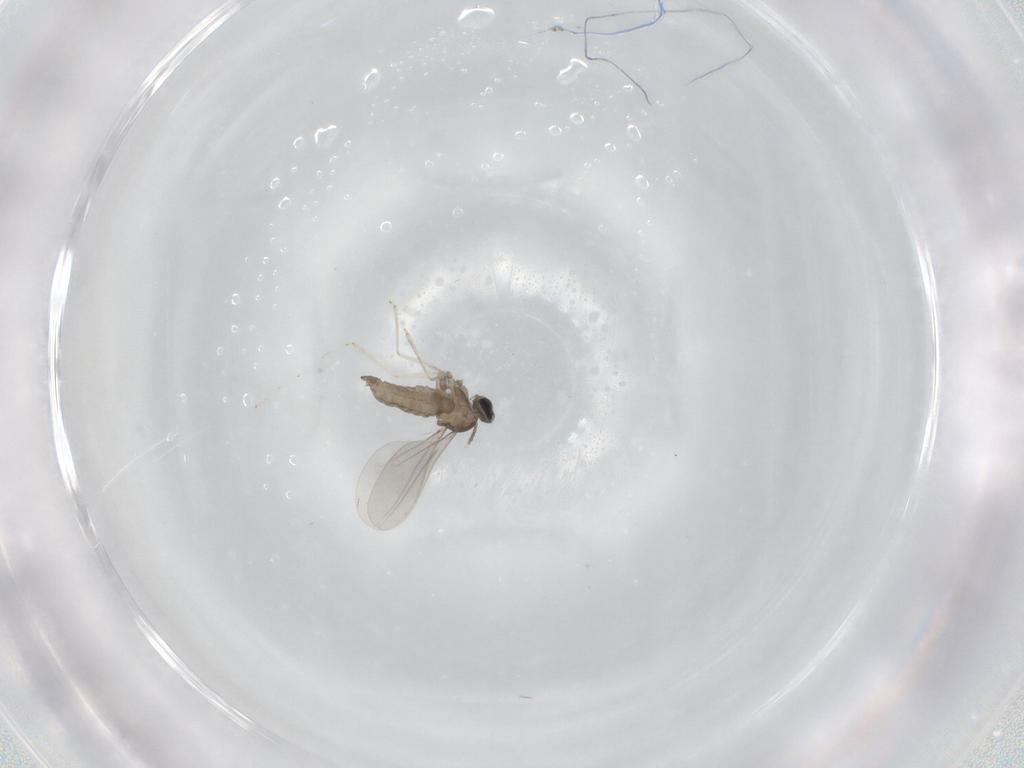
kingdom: Animalia
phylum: Arthropoda
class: Insecta
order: Diptera
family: Cecidomyiidae
